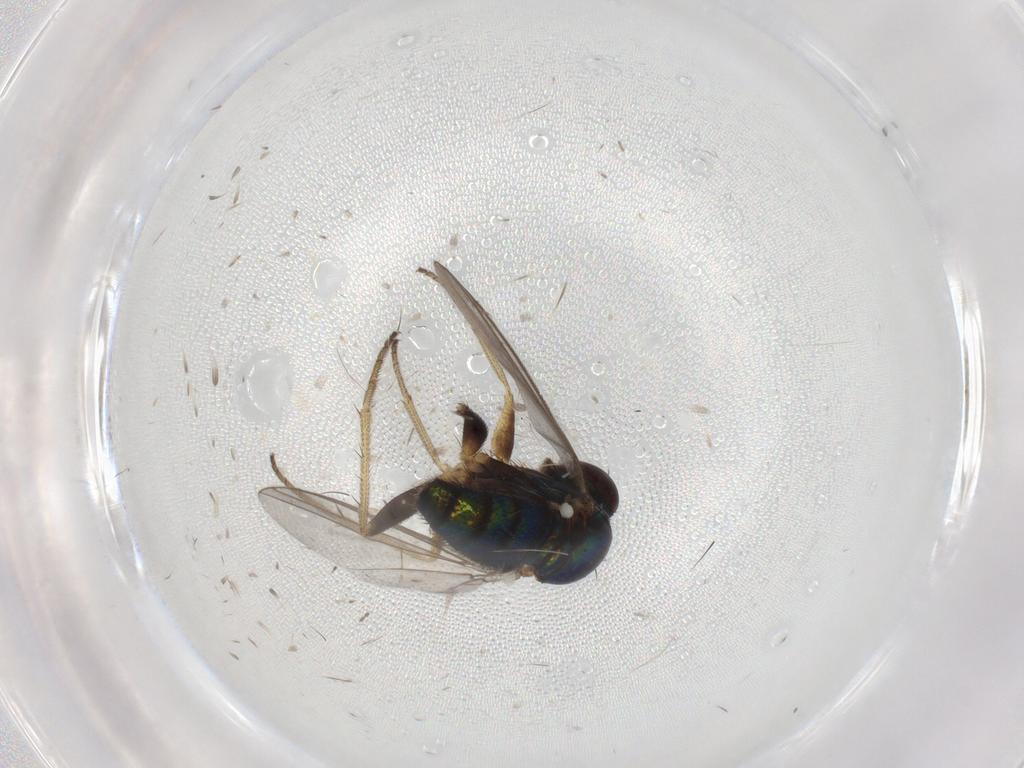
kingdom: Animalia
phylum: Arthropoda
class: Insecta
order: Diptera
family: Dolichopodidae
